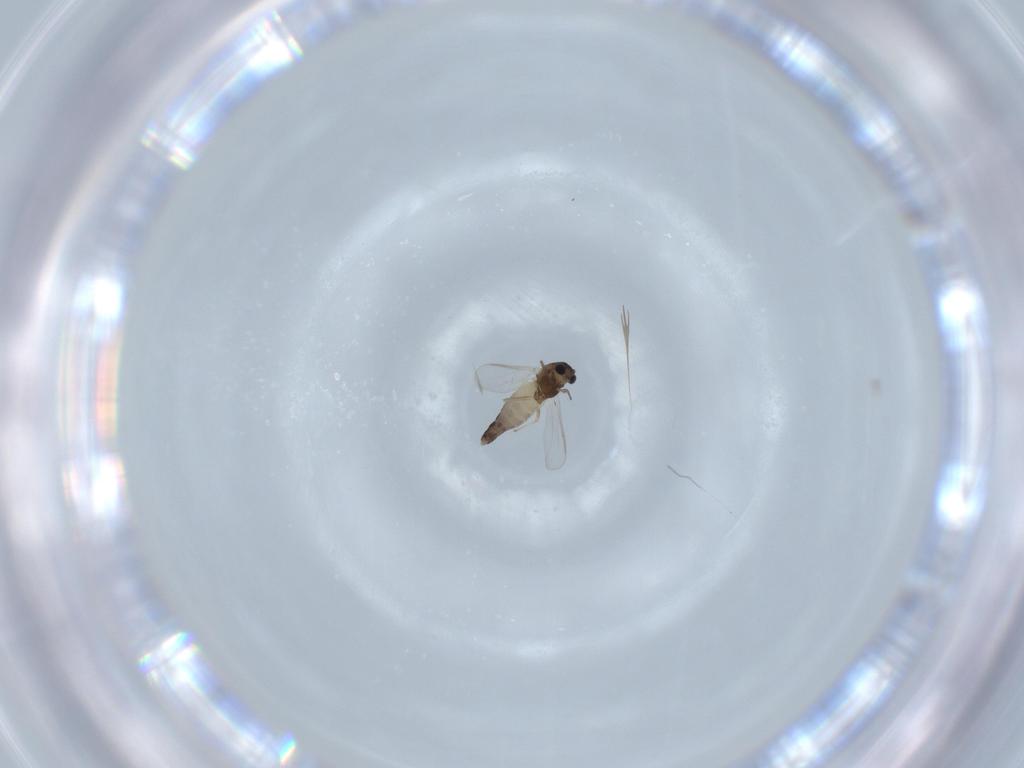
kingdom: Animalia
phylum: Arthropoda
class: Insecta
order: Diptera
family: Chironomidae
